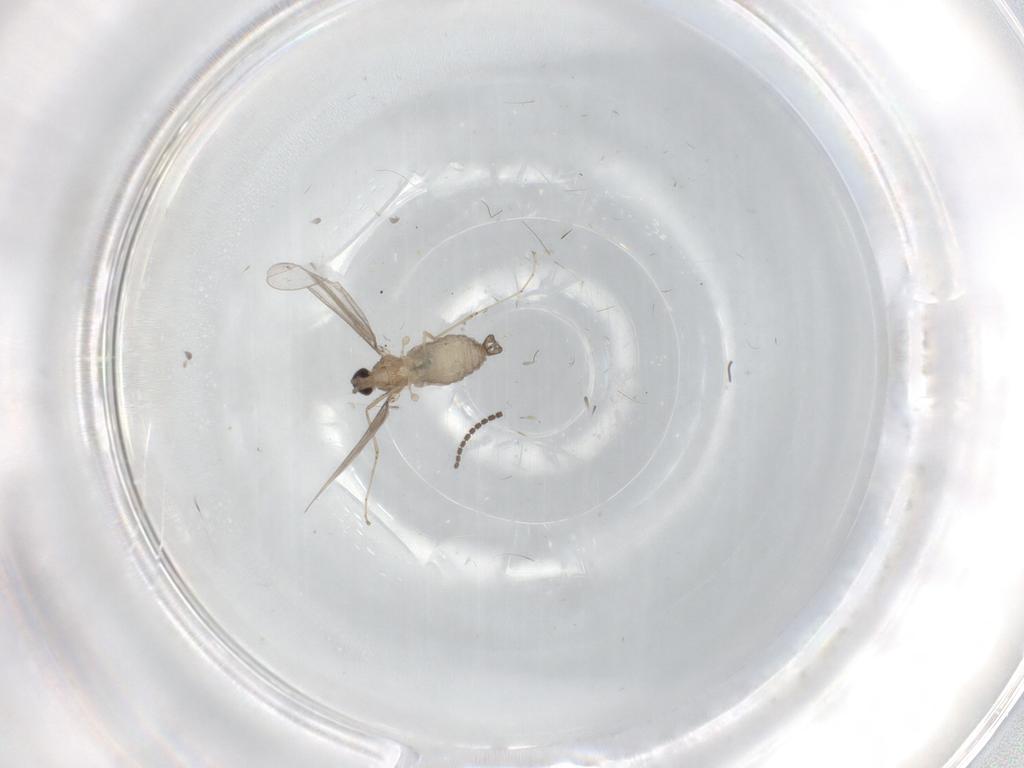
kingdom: Animalia
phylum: Arthropoda
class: Insecta
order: Diptera
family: Cecidomyiidae
